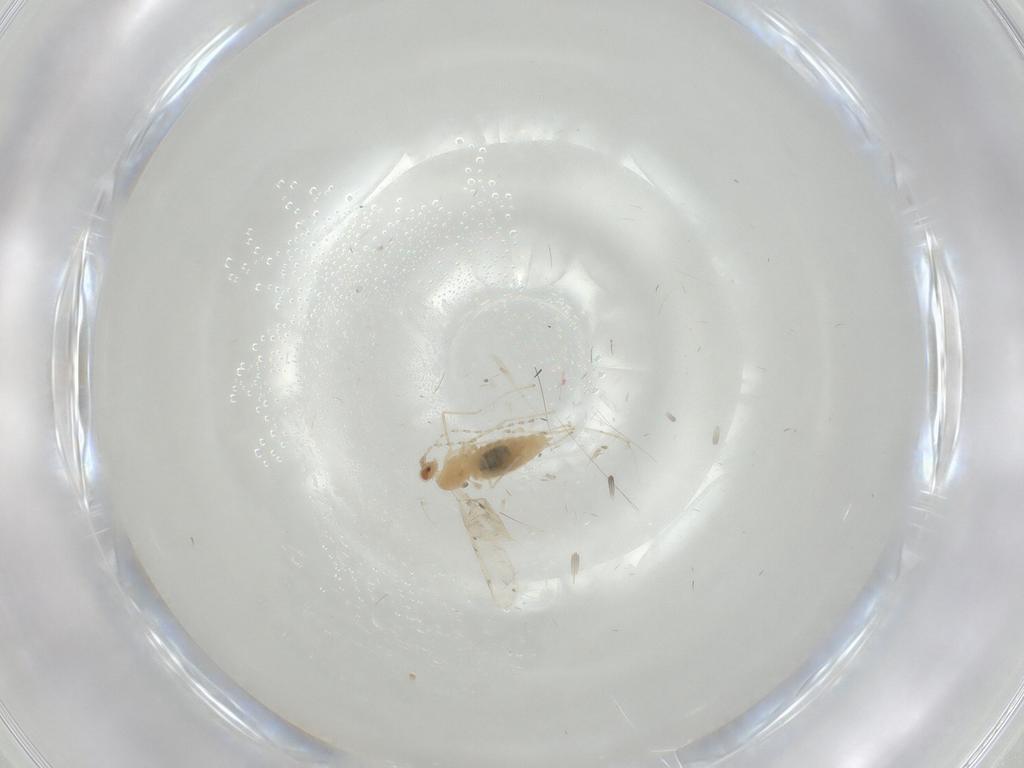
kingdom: Animalia
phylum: Arthropoda
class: Insecta
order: Diptera
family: Cecidomyiidae
